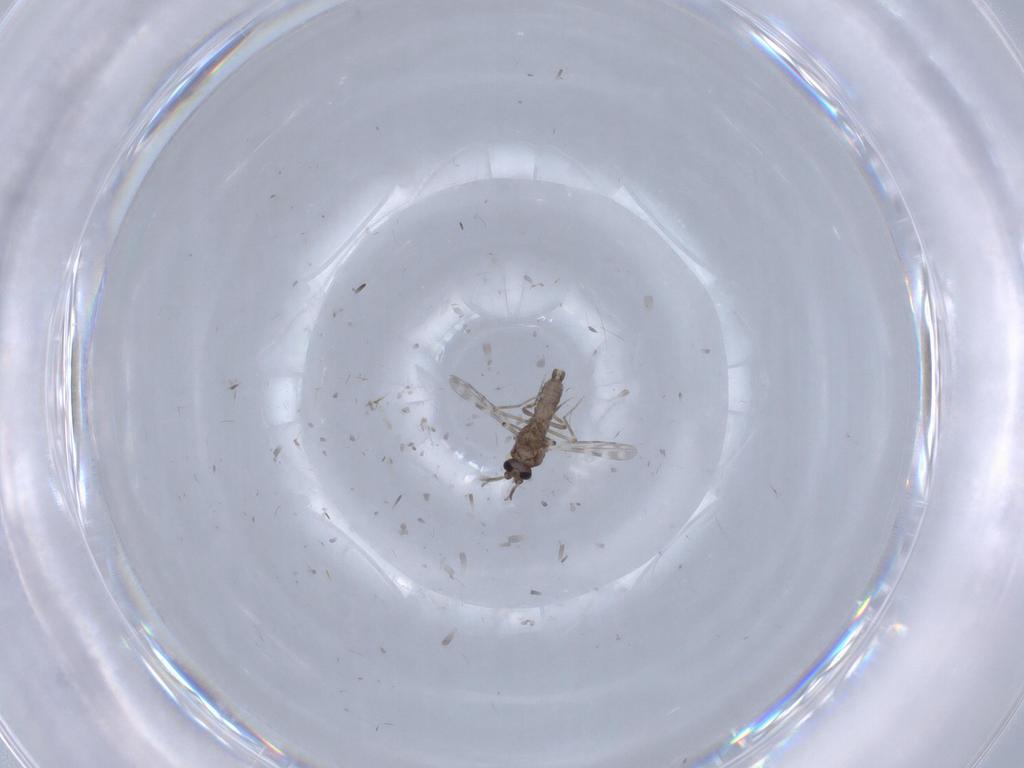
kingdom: Animalia
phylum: Arthropoda
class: Insecta
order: Diptera
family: Ceratopogonidae
